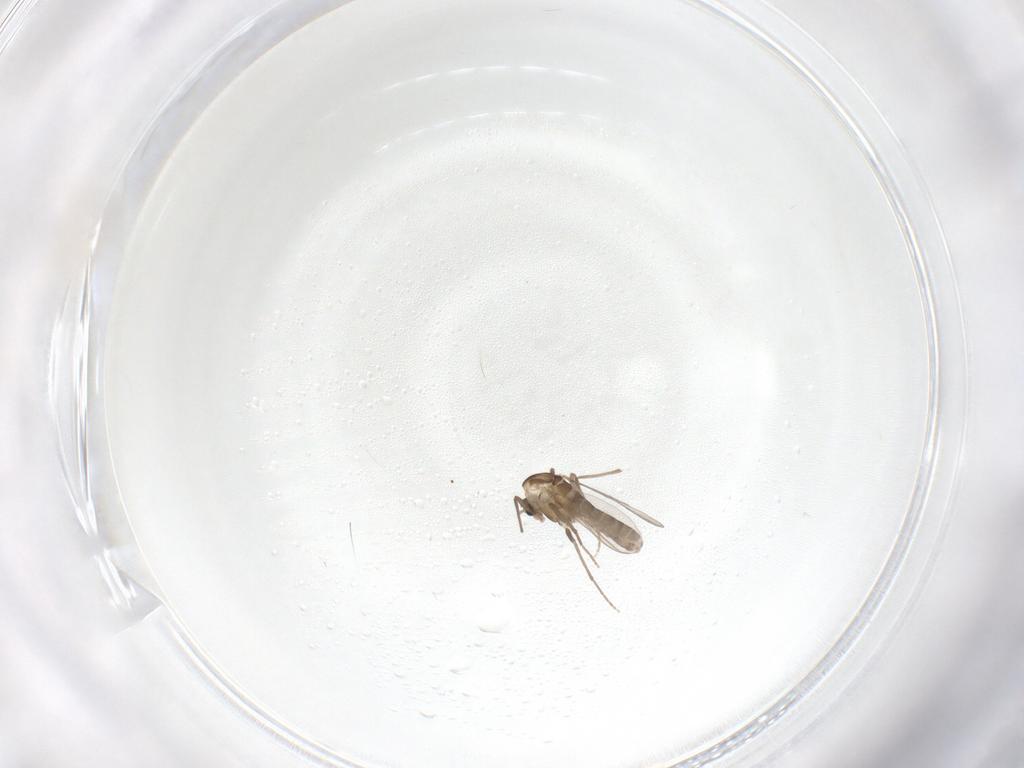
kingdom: Animalia
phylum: Arthropoda
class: Insecta
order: Diptera
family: Chironomidae
